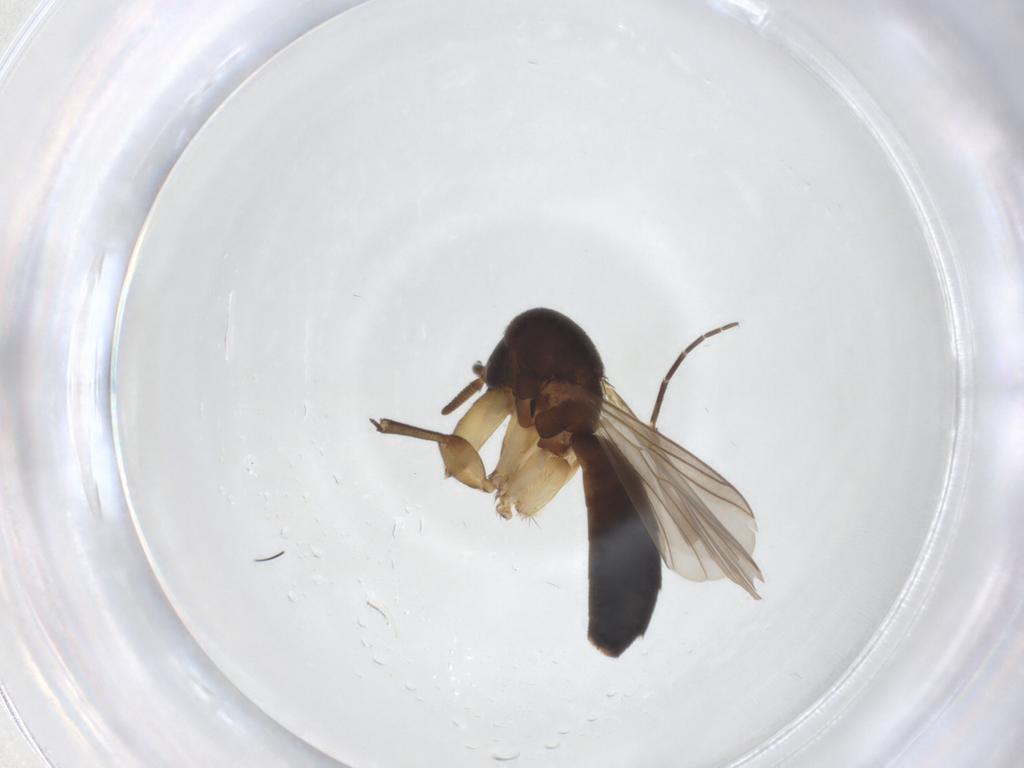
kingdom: Animalia
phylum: Arthropoda
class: Insecta
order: Diptera
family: Mycetophilidae
